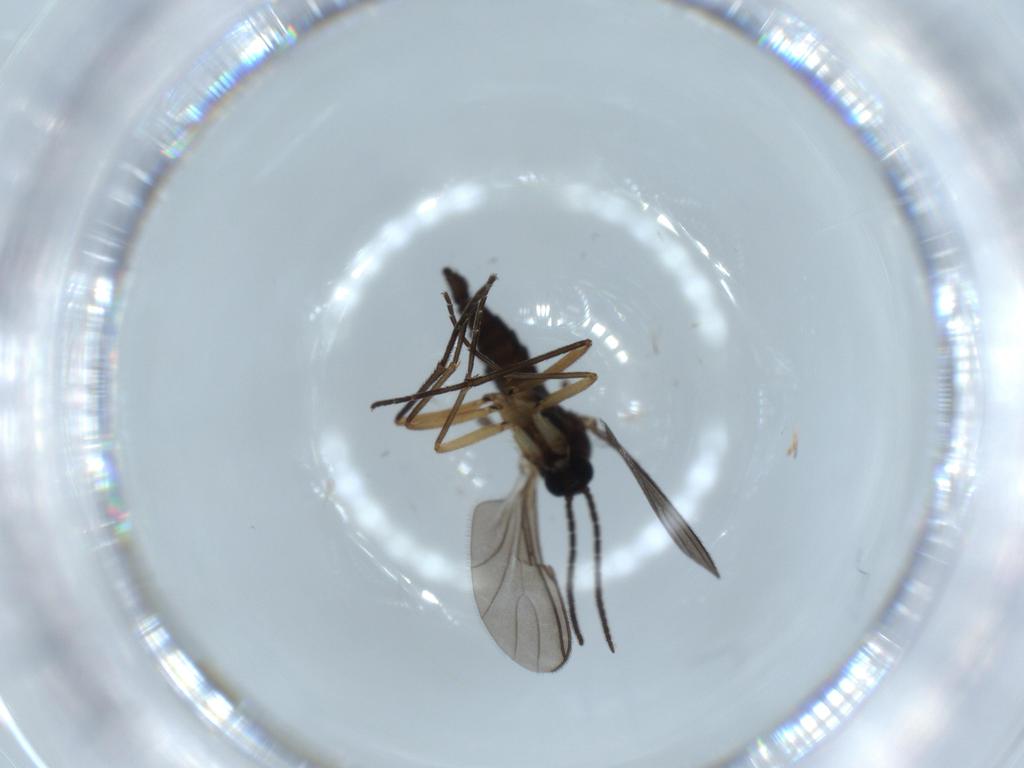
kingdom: Animalia
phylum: Arthropoda
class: Insecta
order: Diptera
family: Sciaridae
